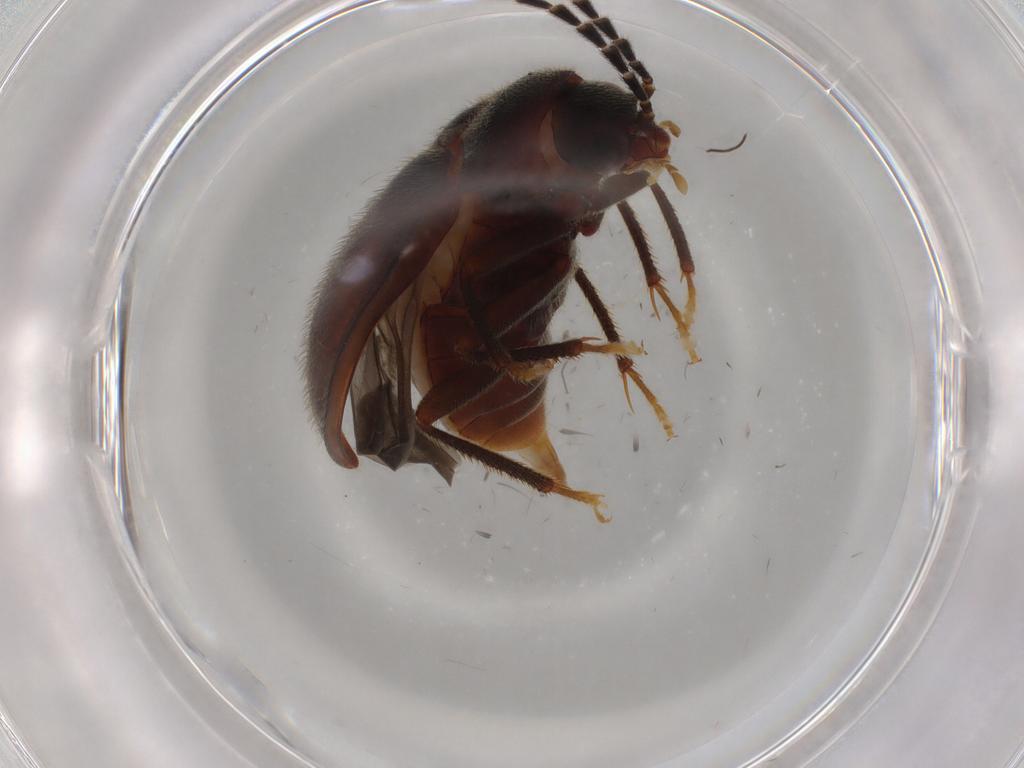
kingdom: Animalia
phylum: Arthropoda
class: Insecta
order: Coleoptera
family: Ptilodactylidae
